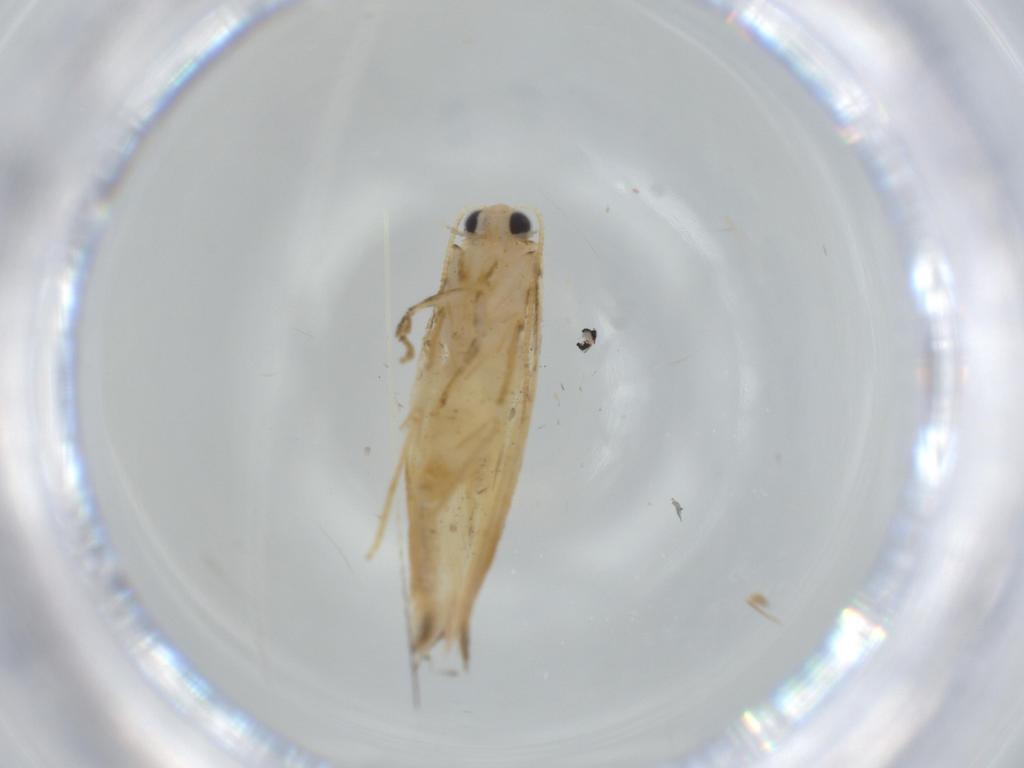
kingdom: Animalia
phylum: Arthropoda
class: Insecta
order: Lepidoptera
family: Tineidae
